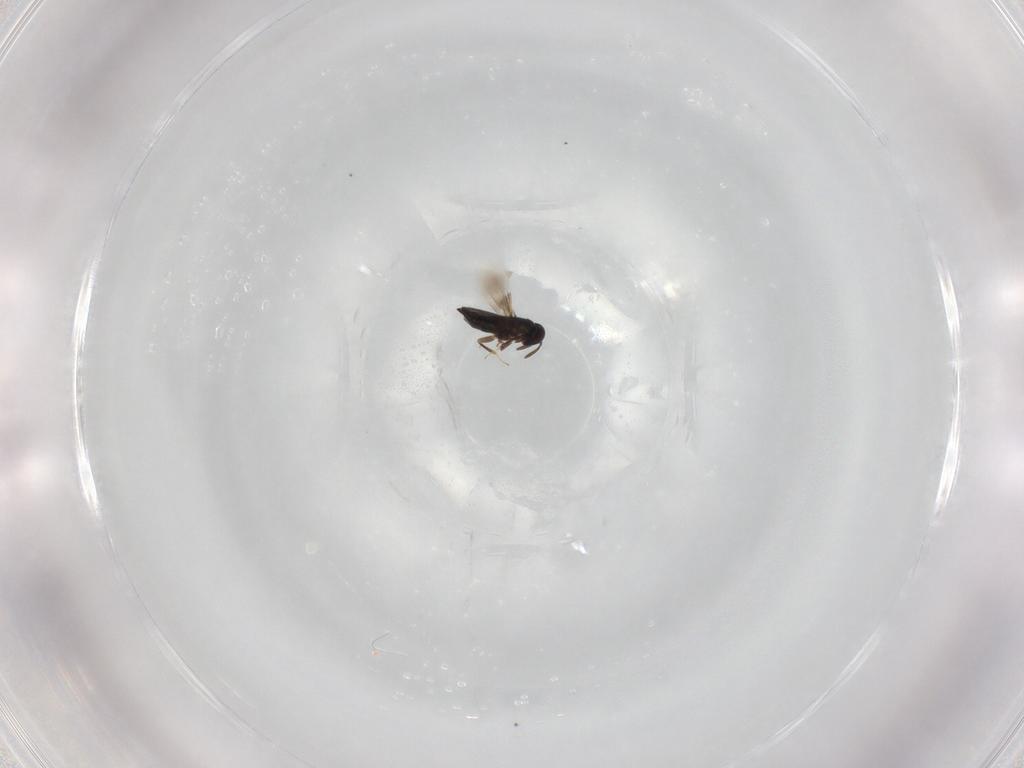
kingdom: Animalia
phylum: Arthropoda
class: Insecta
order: Hymenoptera
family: Signiphoridae
